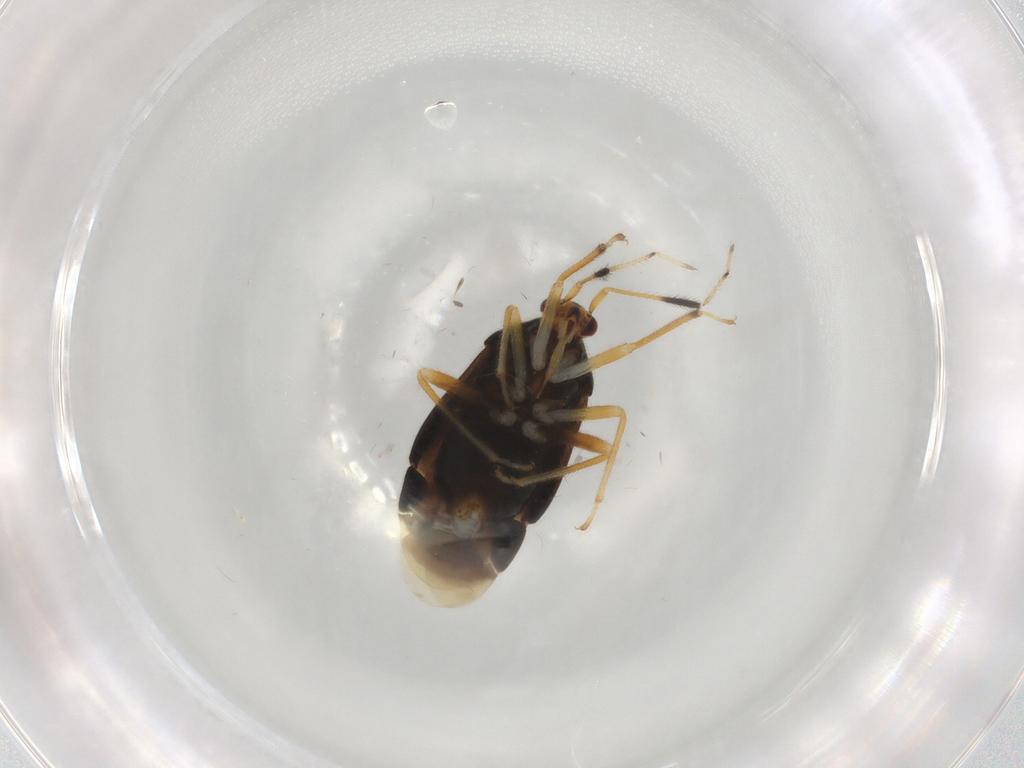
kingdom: Animalia
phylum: Arthropoda
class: Insecta
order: Hemiptera
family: Miridae
